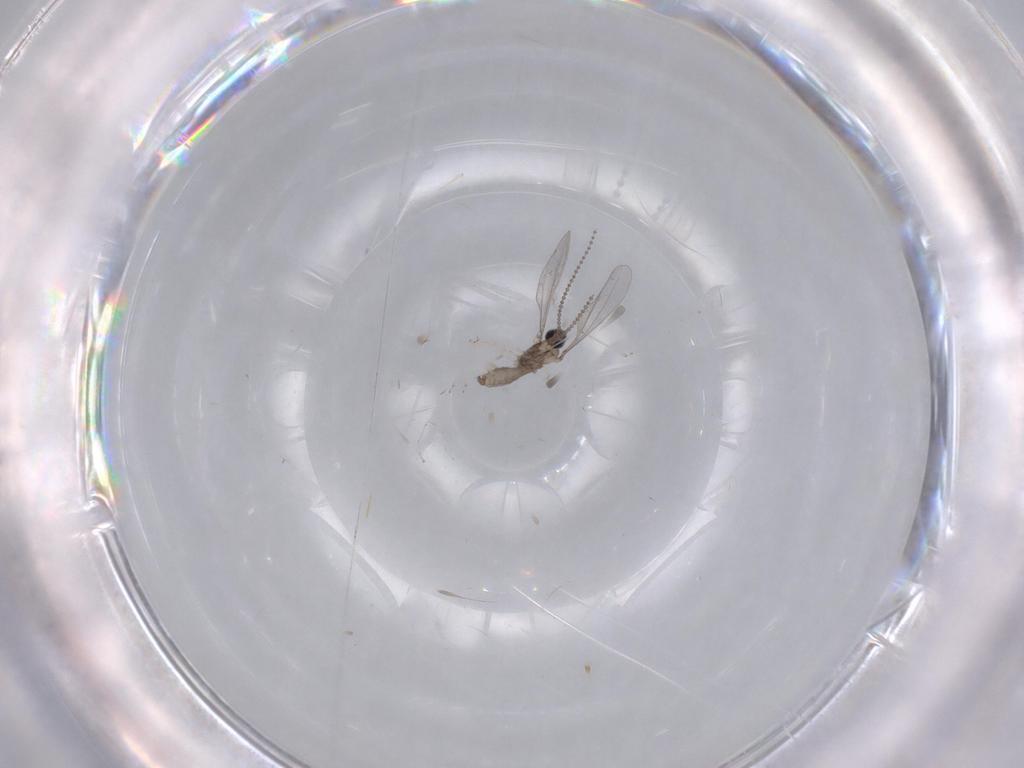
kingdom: Animalia
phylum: Arthropoda
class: Insecta
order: Diptera
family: Cecidomyiidae
